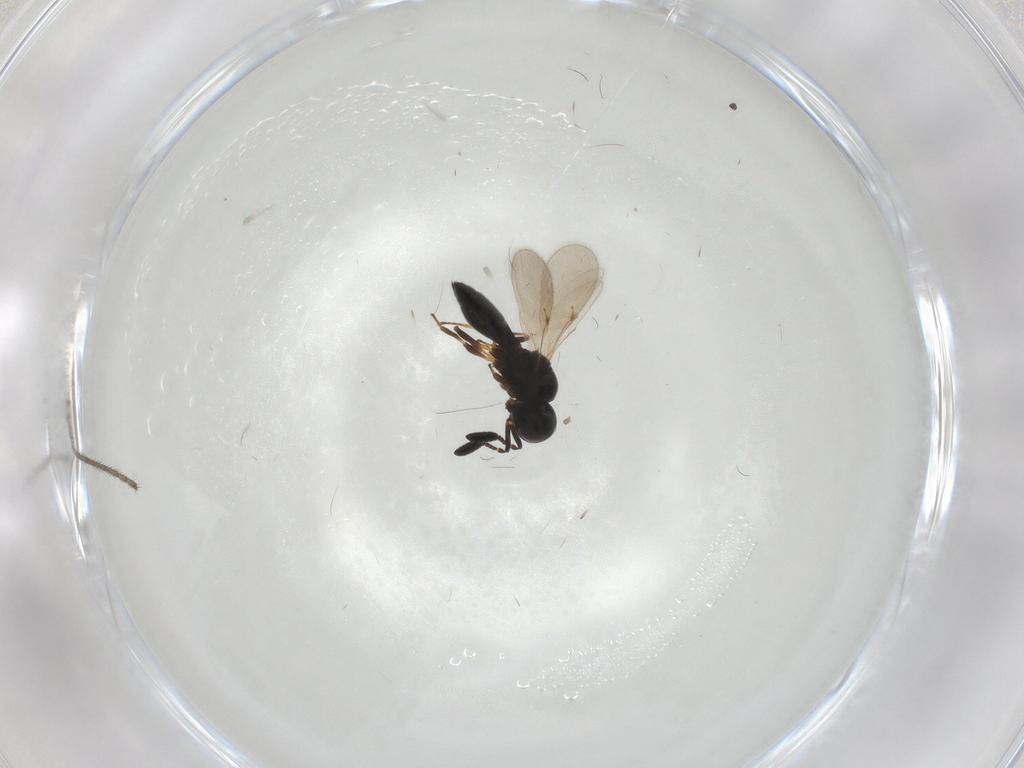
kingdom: Animalia
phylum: Arthropoda
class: Insecta
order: Hymenoptera
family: Scelionidae
